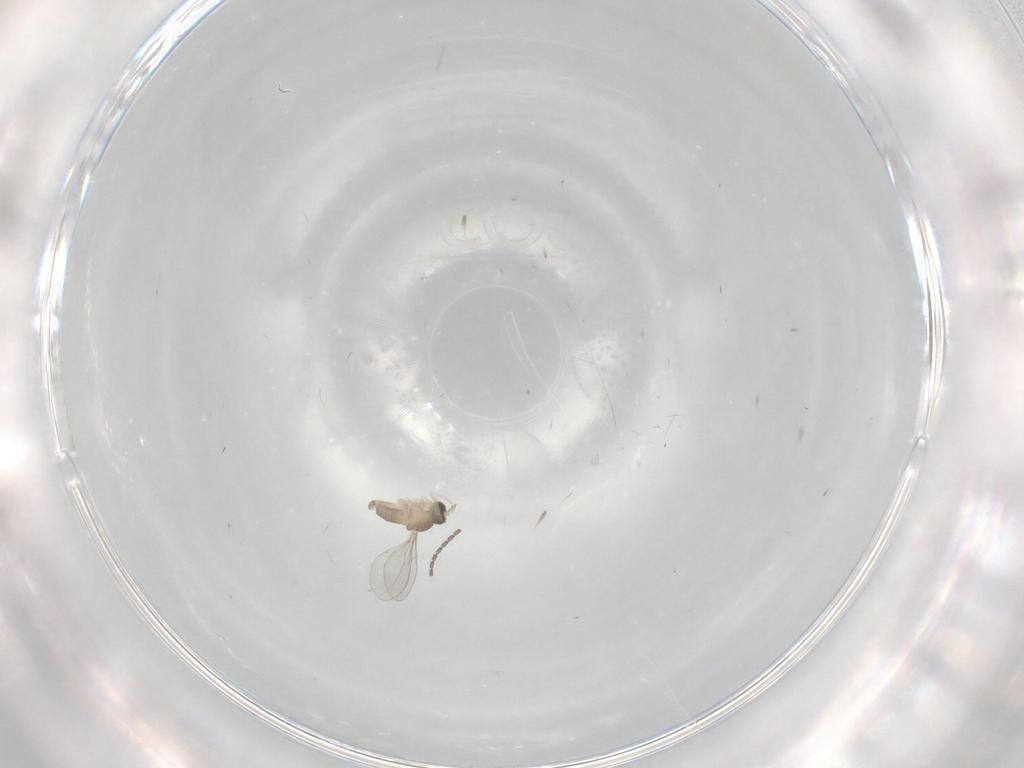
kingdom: Animalia
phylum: Arthropoda
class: Insecta
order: Diptera
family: Cecidomyiidae
